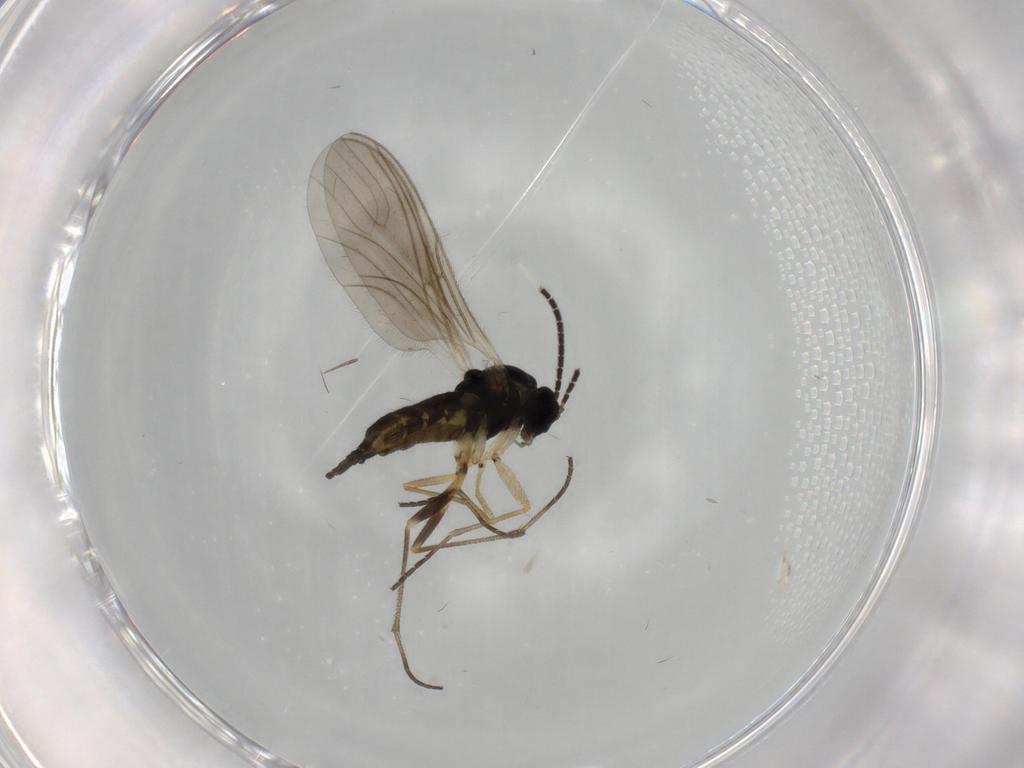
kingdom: Animalia
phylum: Arthropoda
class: Insecta
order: Diptera
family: Sciaridae
